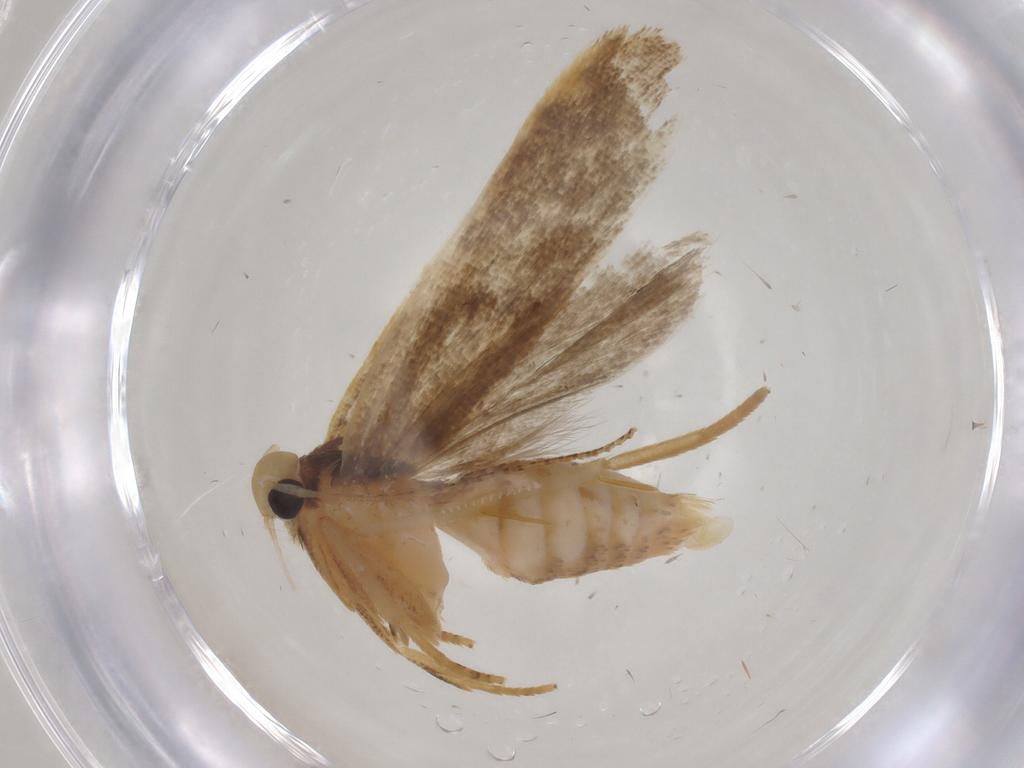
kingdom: Animalia
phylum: Arthropoda
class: Insecta
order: Lepidoptera
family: Gelechiidae
